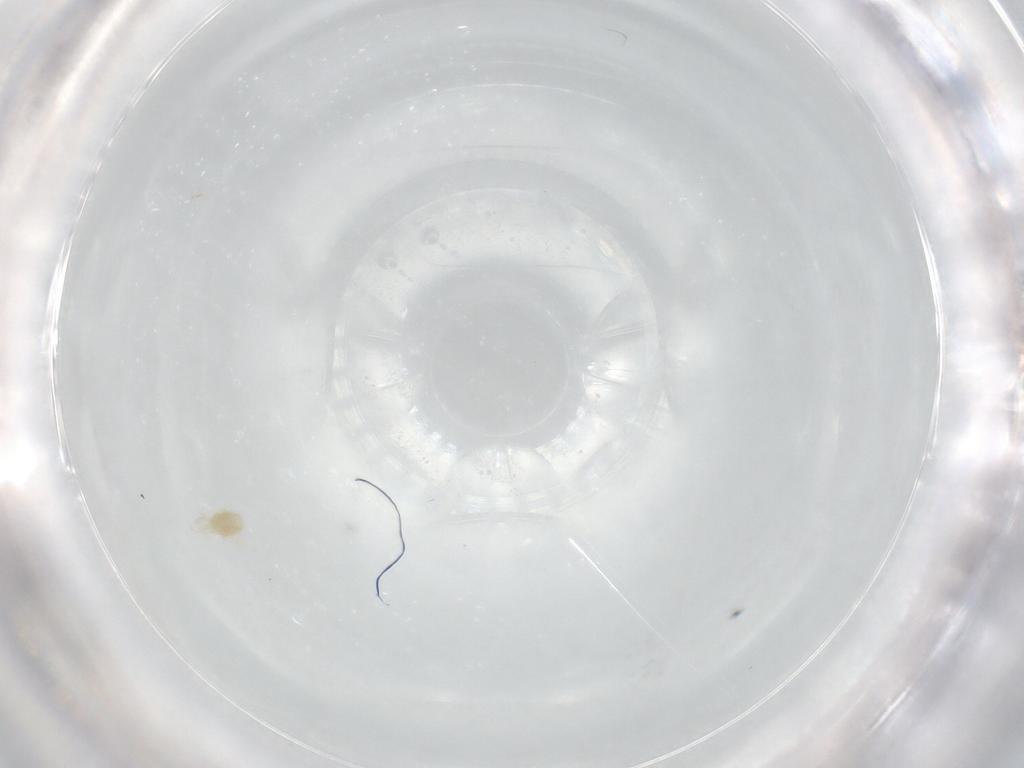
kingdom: Animalia
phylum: Arthropoda
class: Arachnida
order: Trombidiformes
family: Eupodidae
